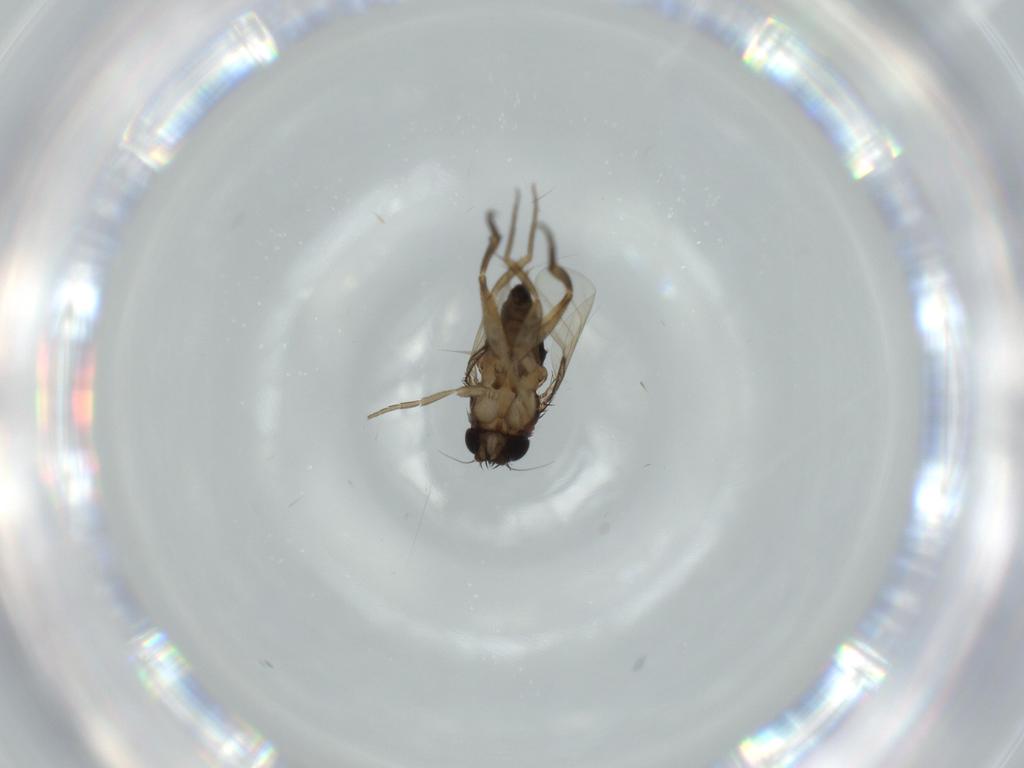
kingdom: Animalia
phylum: Arthropoda
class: Insecta
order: Diptera
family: Phoridae
